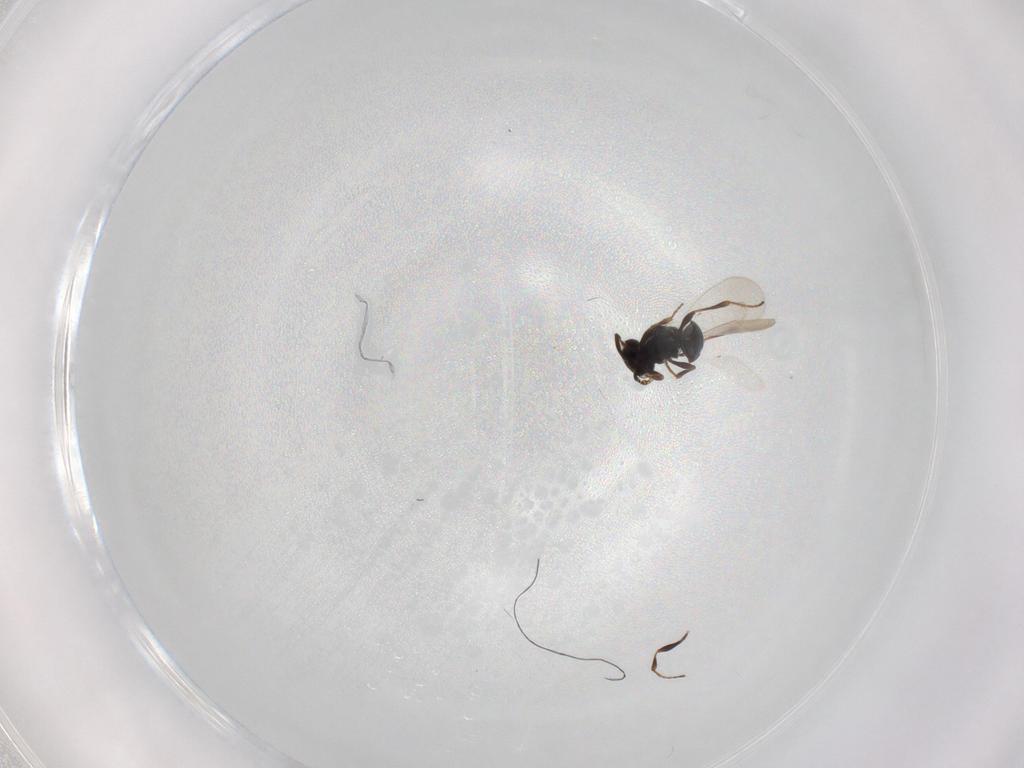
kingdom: Animalia
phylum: Arthropoda
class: Insecta
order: Hymenoptera
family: Platygastridae
